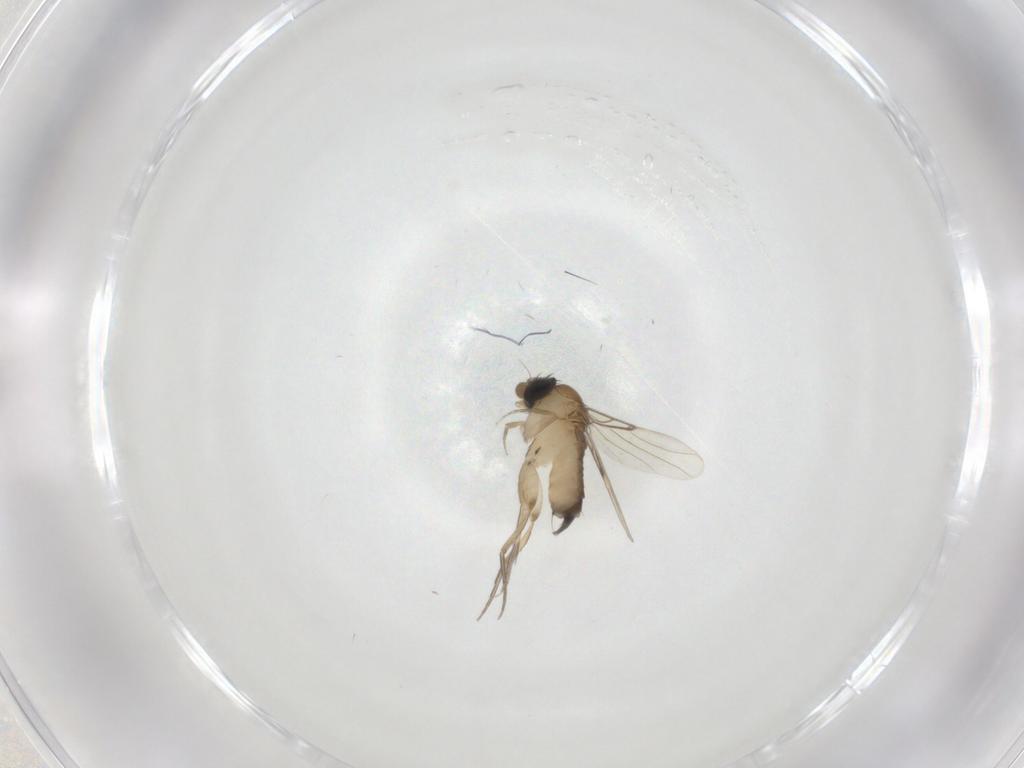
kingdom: Animalia
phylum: Arthropoda
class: Insecta
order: Diptera
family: Phoridae
